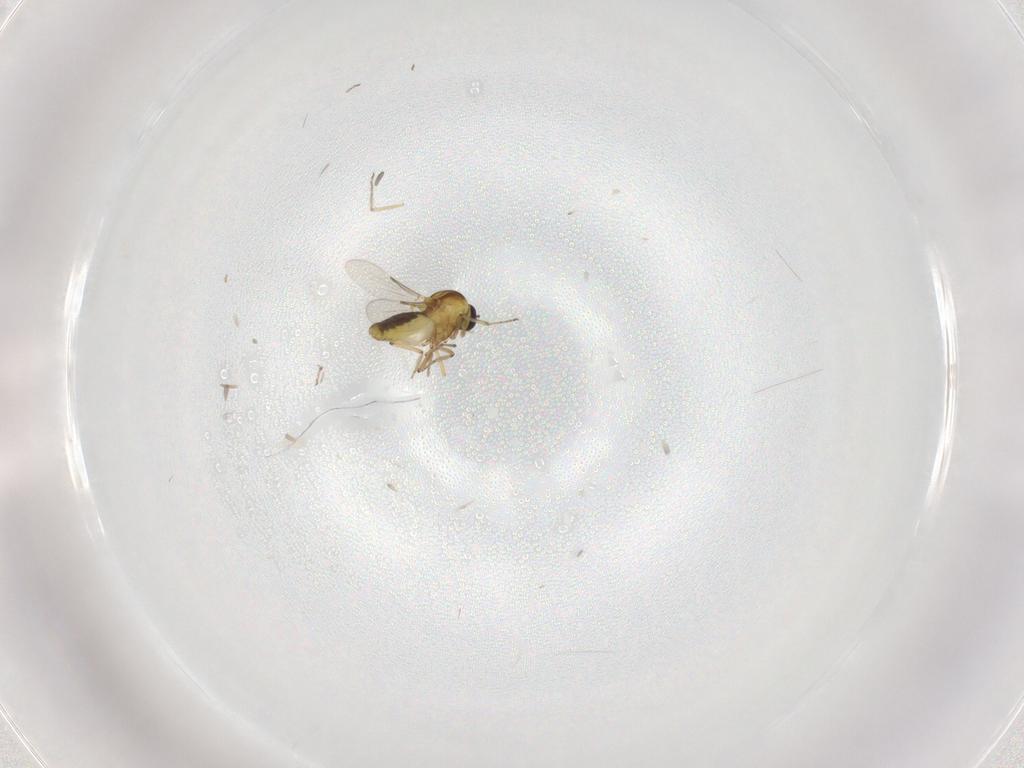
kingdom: Animalia
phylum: Arthropoda
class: Insecta
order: Diptera
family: Ceratopogonidae
